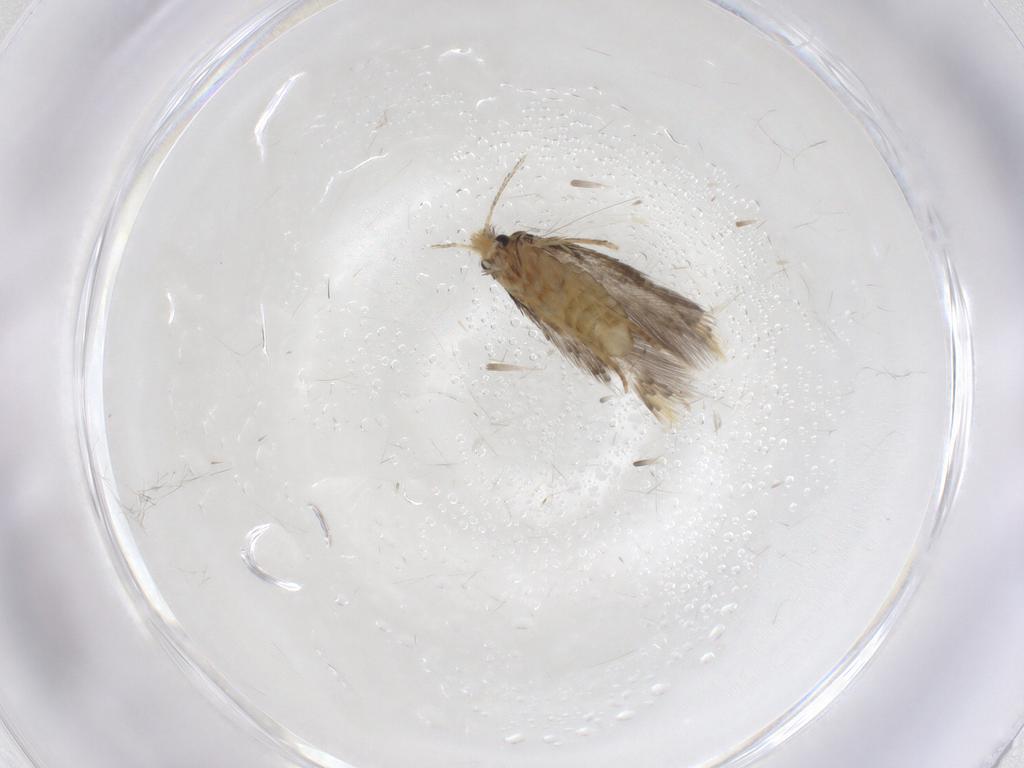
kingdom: Animalia
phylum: Arthropoda
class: Insecta
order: Lepidoptera
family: Nepticulidae
